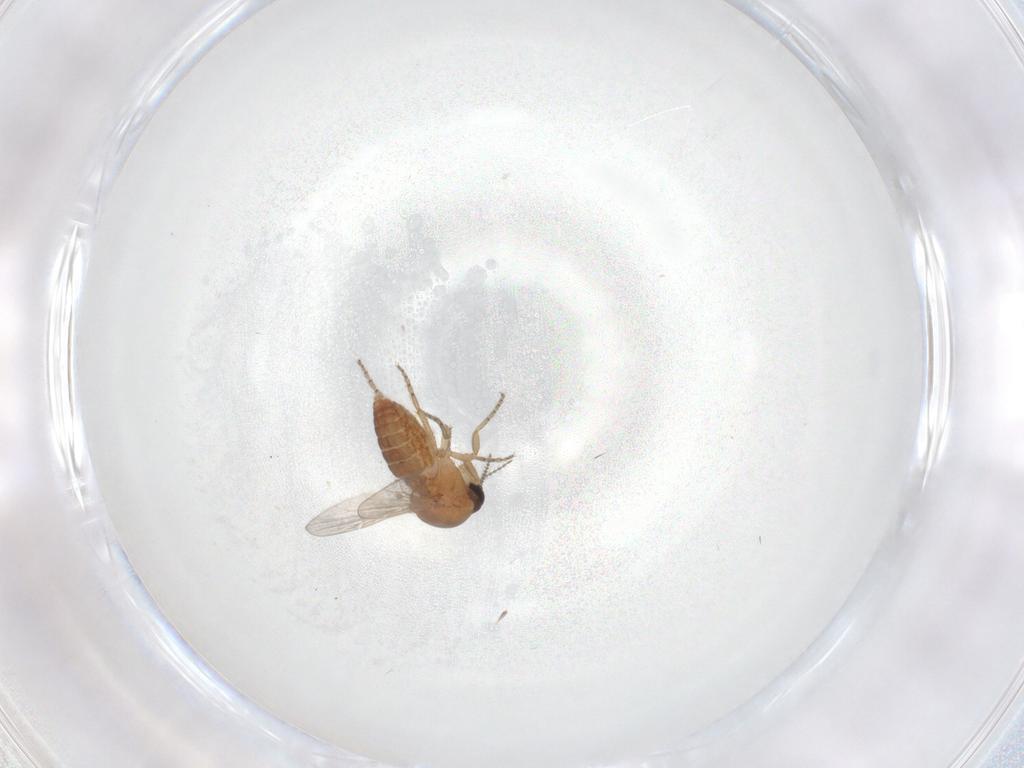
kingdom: Animalia
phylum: Arthropoda
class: Insecta
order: Diptera
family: Ceratopogonidae
